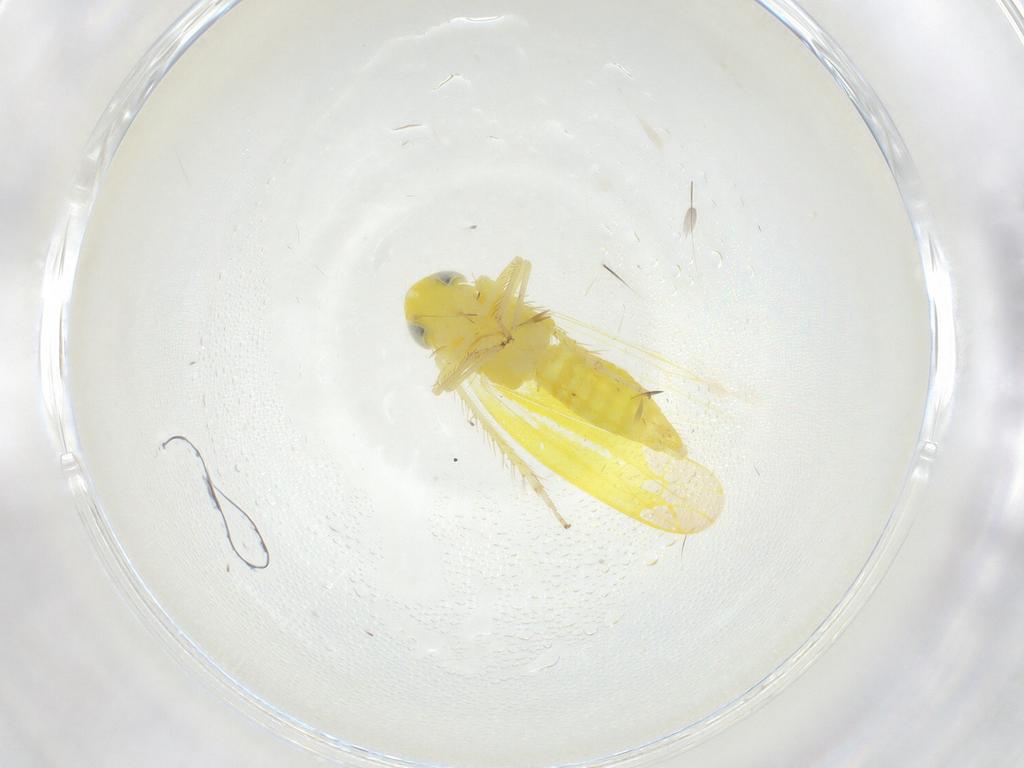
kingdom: Animalia
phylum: Arthropoda
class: Insecta
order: Hemiptera
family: Cicadellidae
